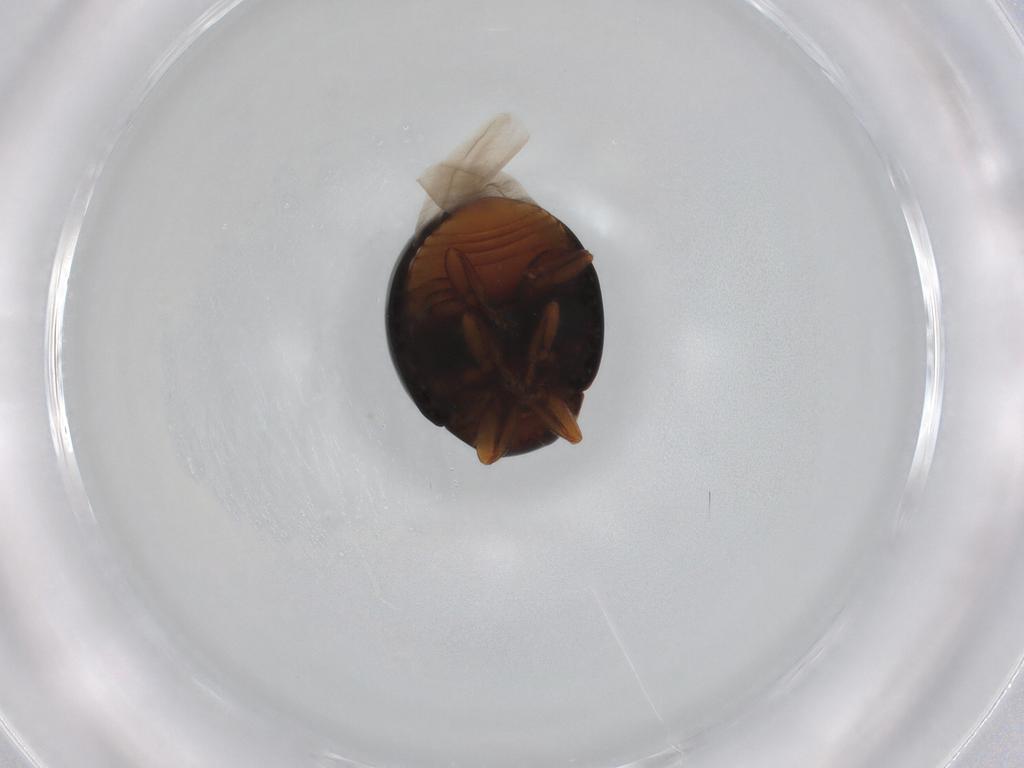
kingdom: Animalia
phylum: Arthropoda
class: Insecta
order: Coleoptera
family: Coccinellidae
